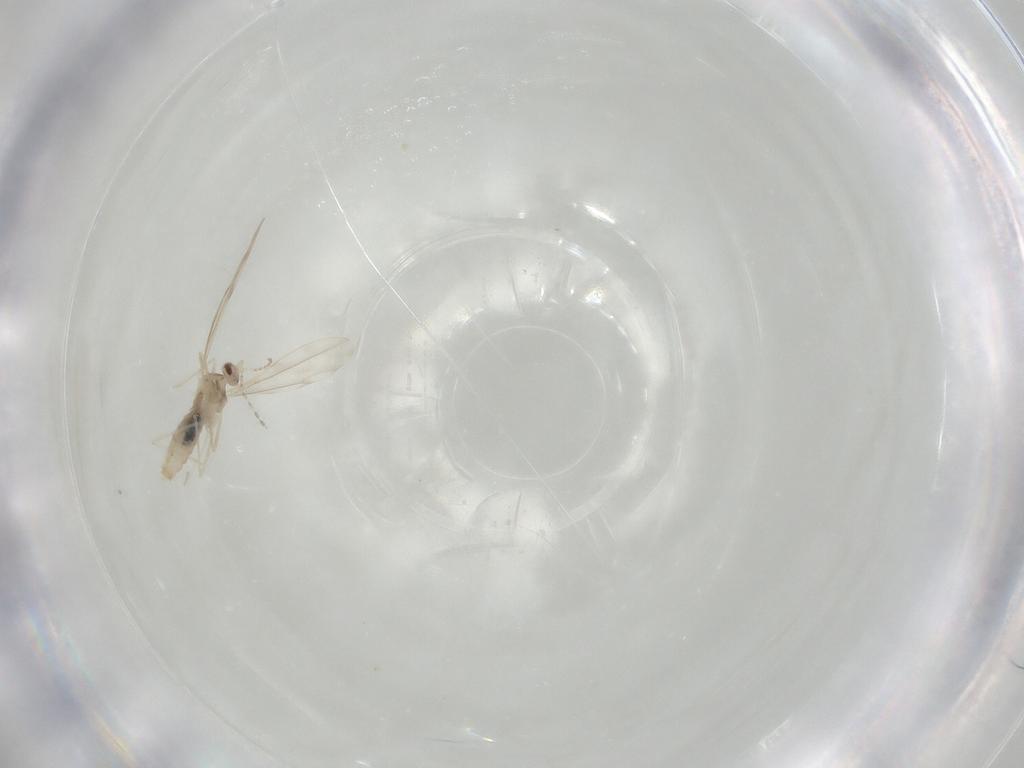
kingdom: Animalia
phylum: Arthropoda
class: Insecta
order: Diptera
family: Cecidomyiidae
